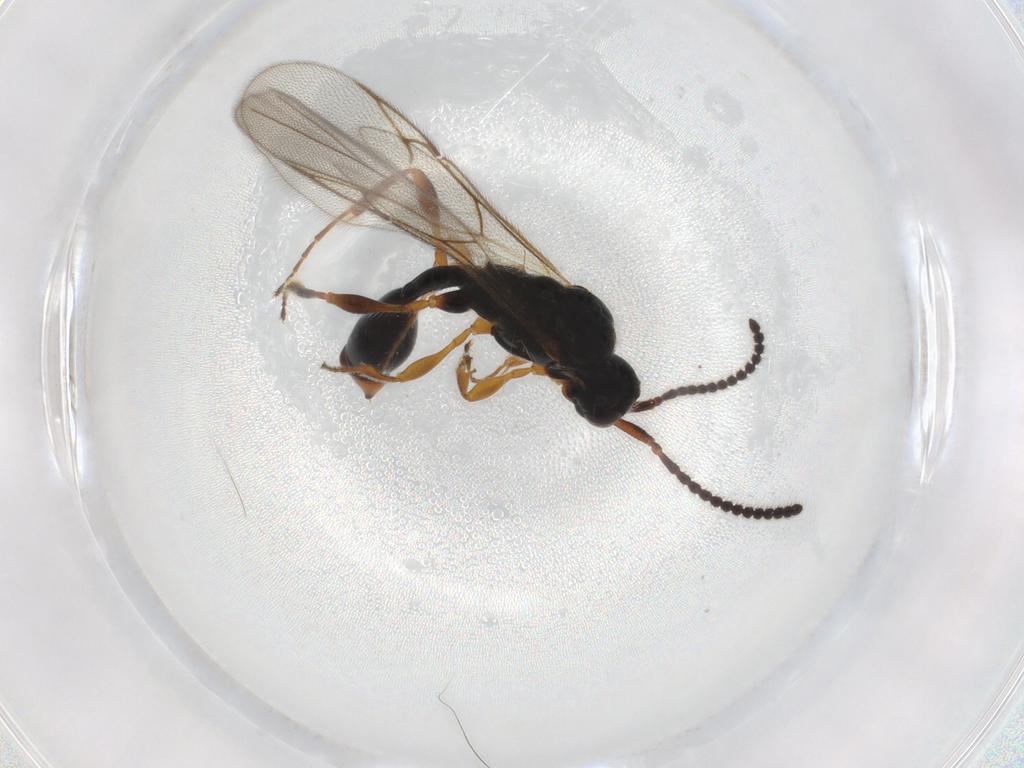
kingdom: Animalia
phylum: Arthropoda
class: Insecta
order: Hymenoptera
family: Diapriidae
